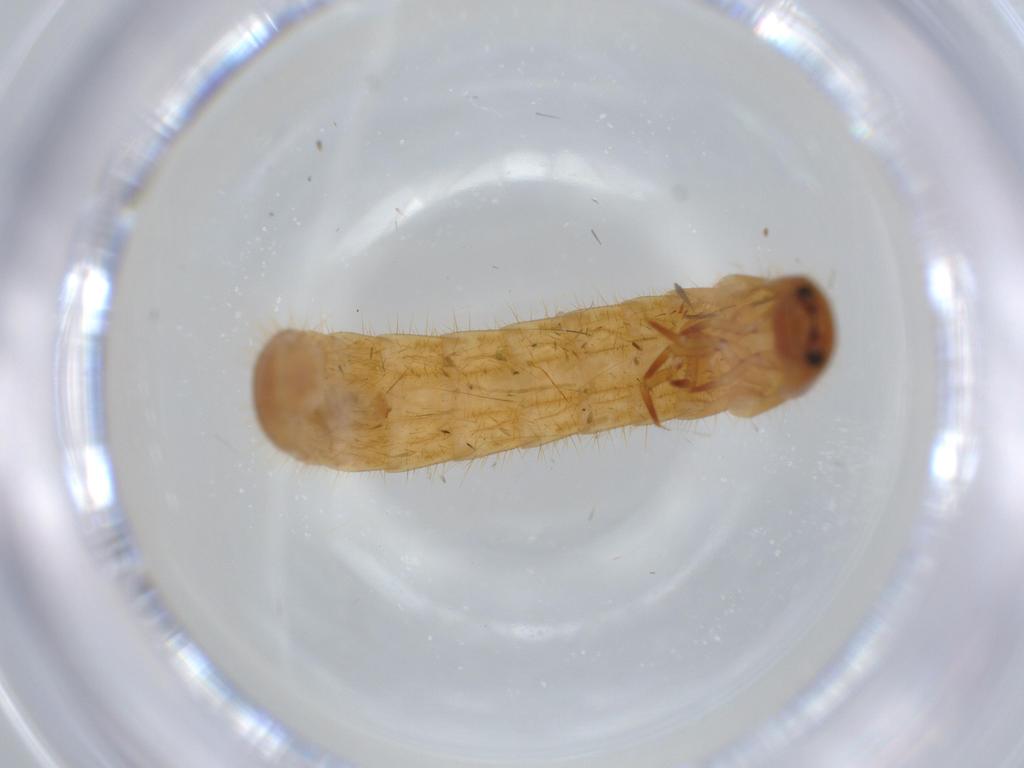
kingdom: Animalia
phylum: Arthropoda
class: Insecta
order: Coleoptera
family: Phengodidae
